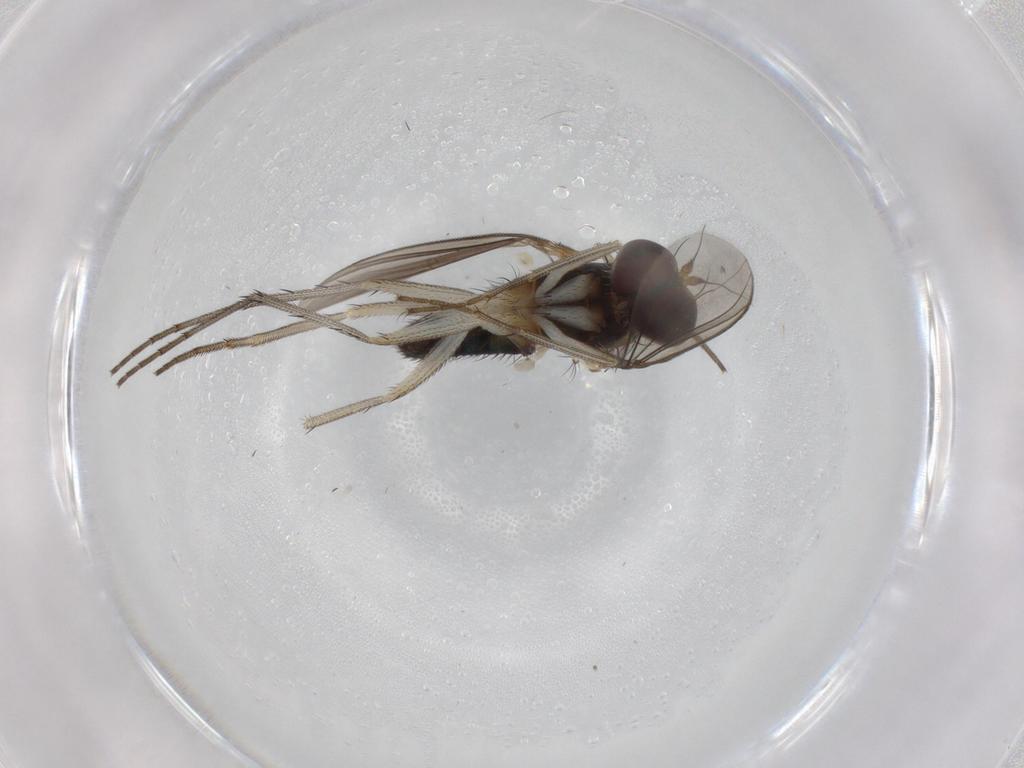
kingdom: Animalia
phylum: Arthropoda
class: Insecta
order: Diptera
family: Dolichopodidae
